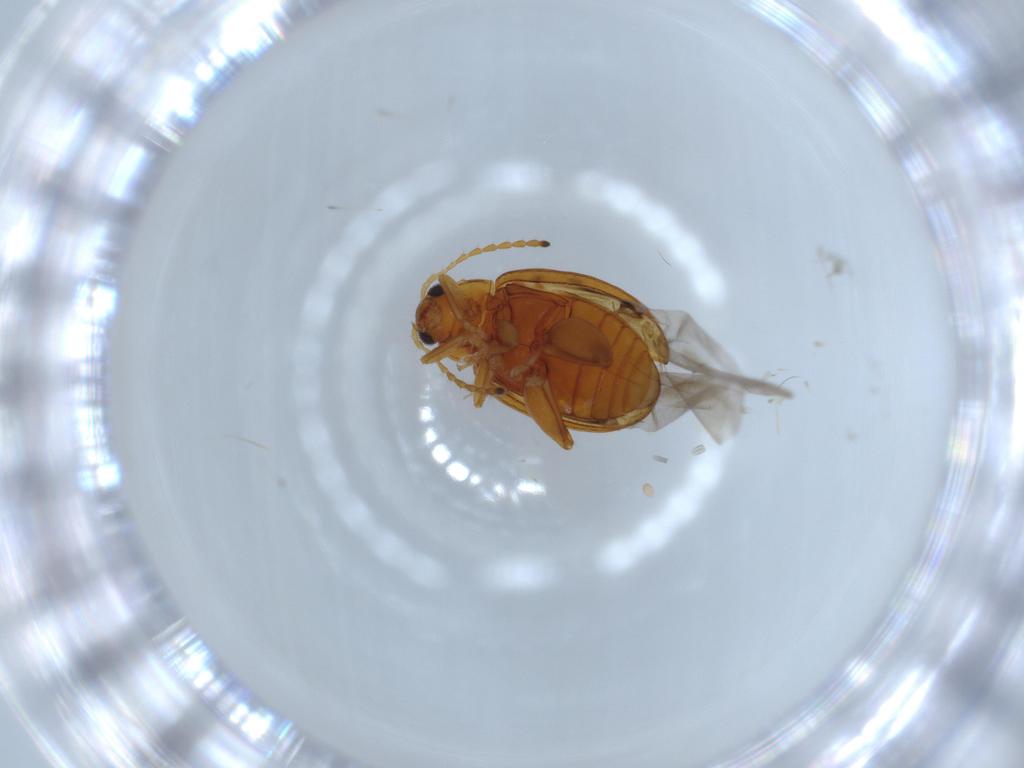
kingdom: Animalia
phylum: Arthropoda
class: Insecta
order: Coleoptera
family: Chrysomelidae
